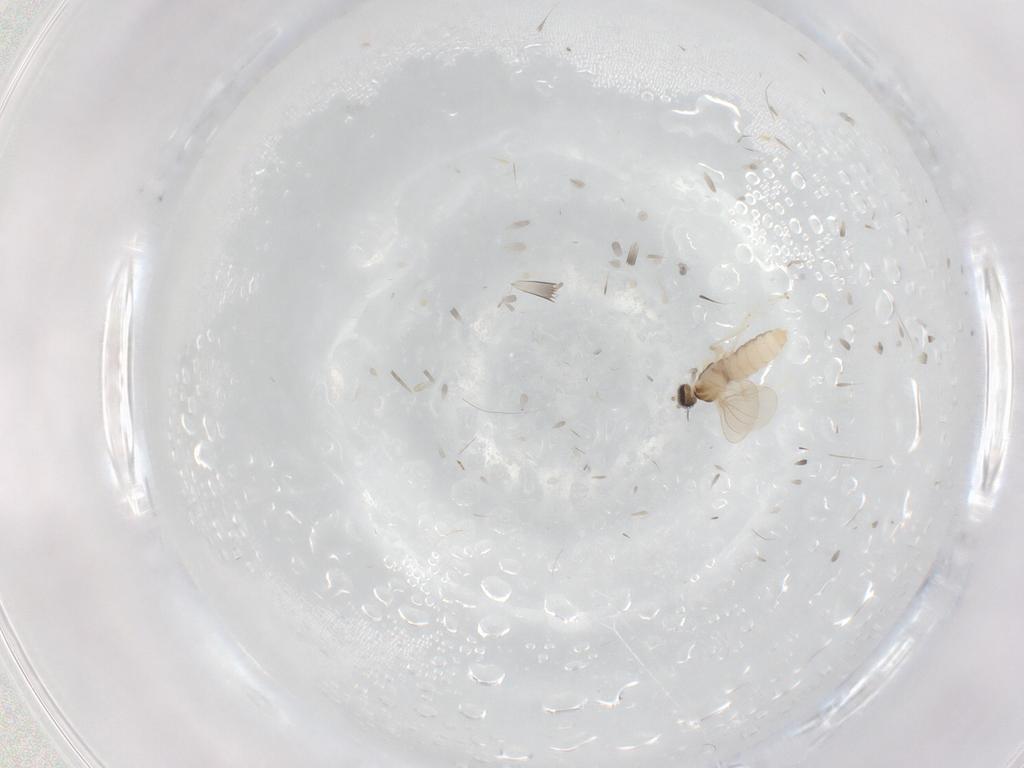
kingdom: Animalia
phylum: Arthropoda
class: Insecta
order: Diptera
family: Cecidomyiidae
